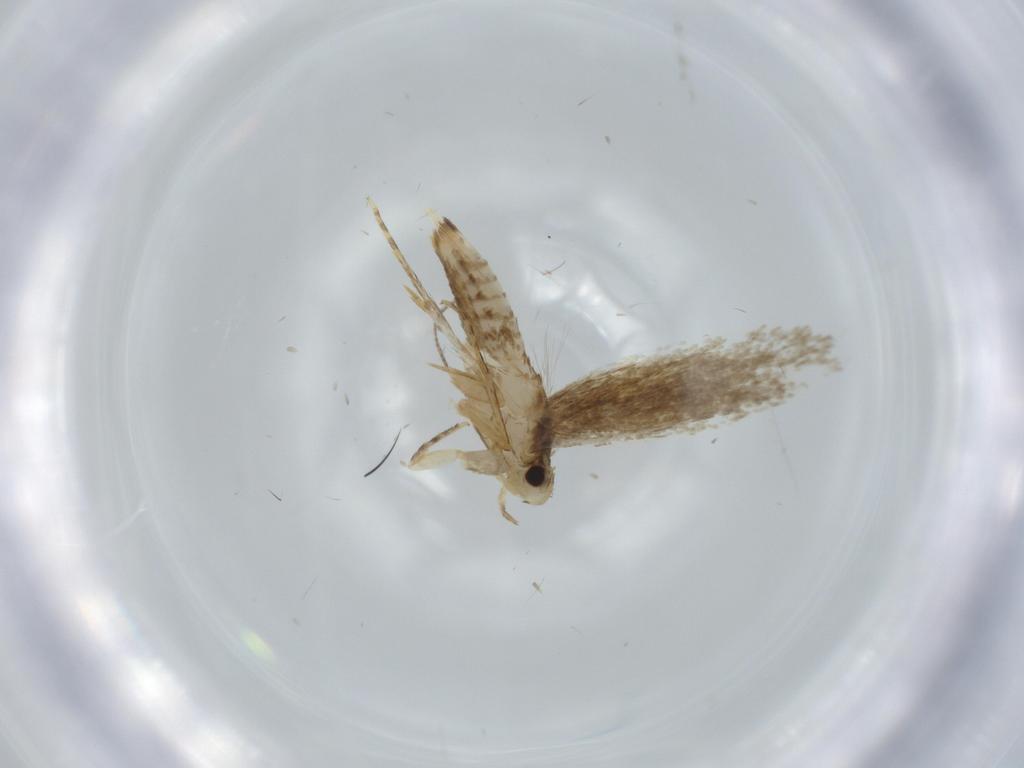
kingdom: Animalia
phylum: Arthropoda
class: Insecta
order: Lepidoptera
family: Tineidae
